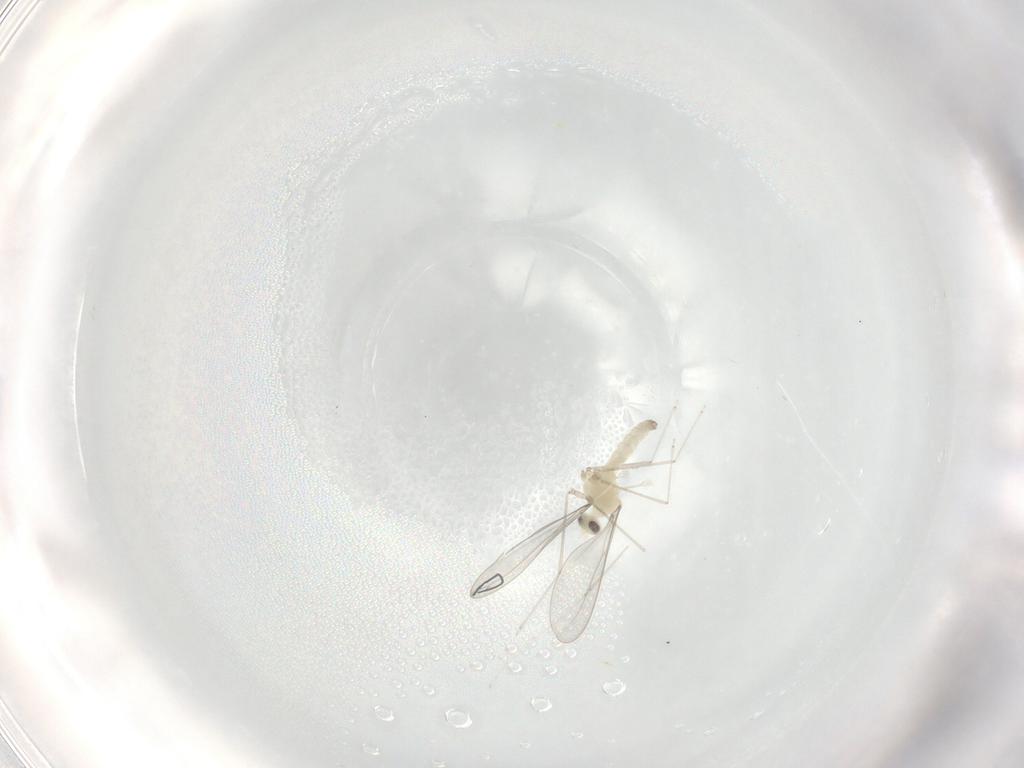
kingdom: Animalia
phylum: Arthropoda
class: Insecta
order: Diptera
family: Phoridae
